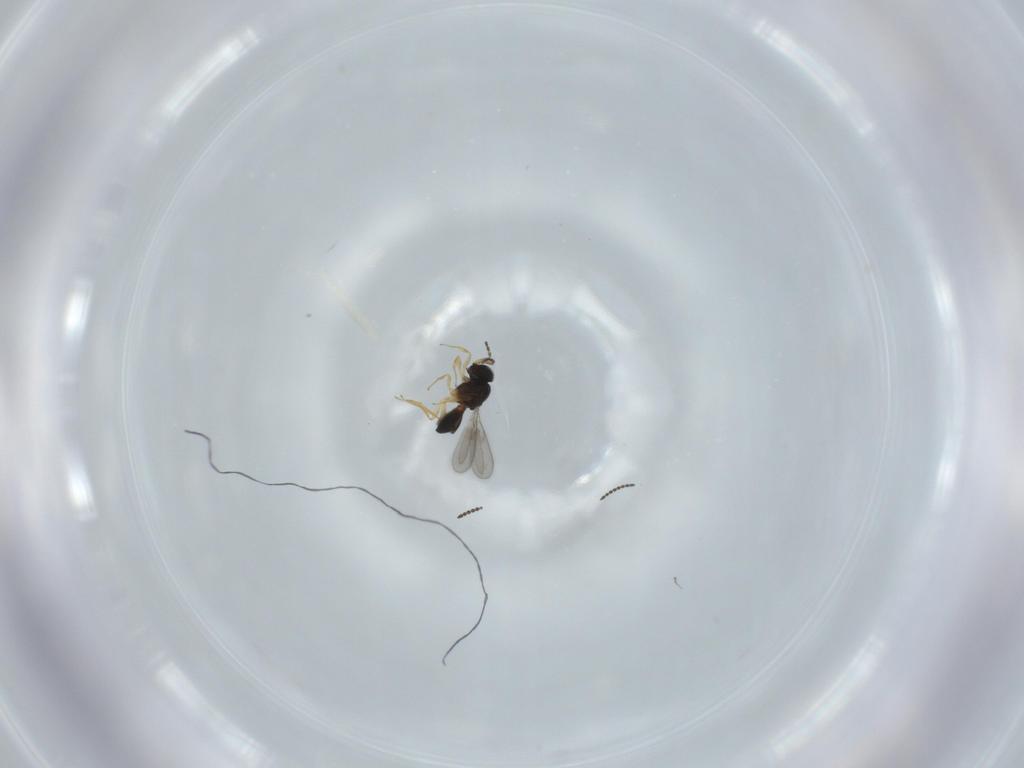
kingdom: Animalia
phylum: Arthropoda
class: Insecta
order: Hymenoptera
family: Scelionidae
